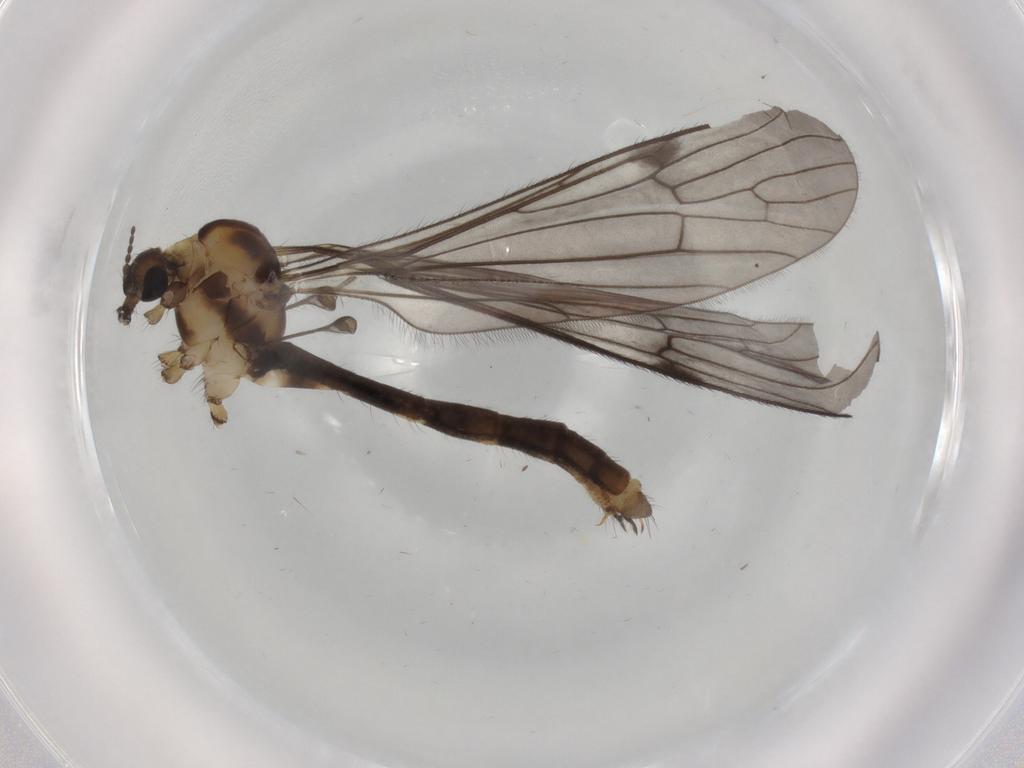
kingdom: Animalia
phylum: Arthropoda
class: Insecta
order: Diptera
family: Limoniidae
